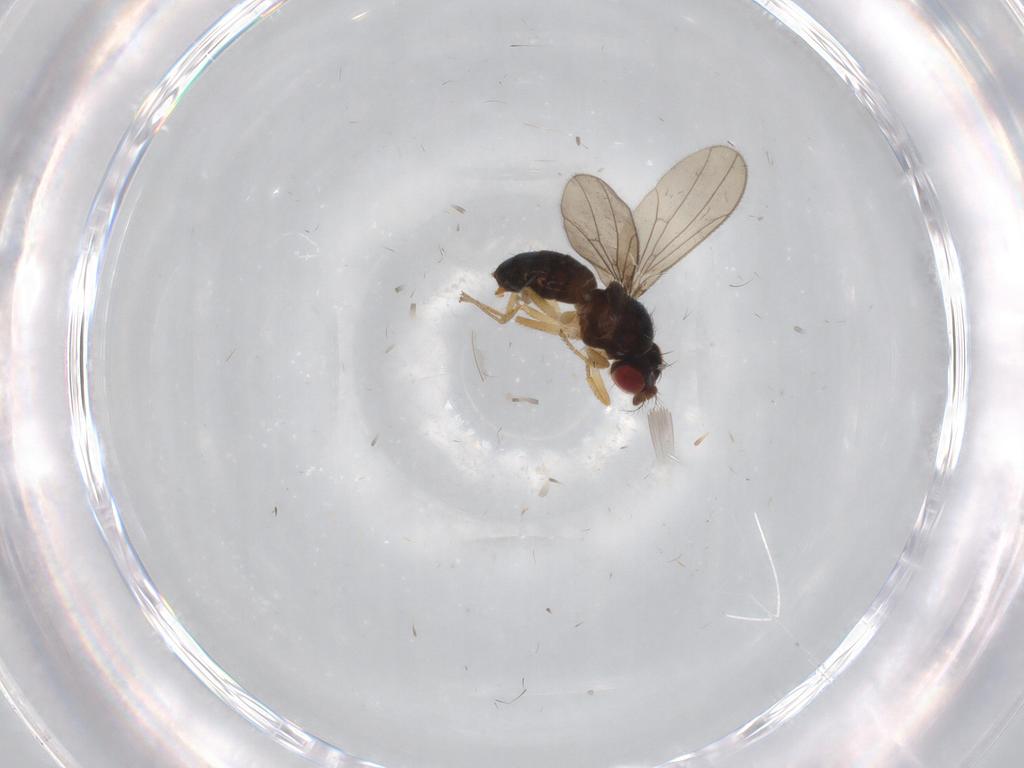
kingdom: Animalia
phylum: Arthropoda
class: Insecta
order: Diptera
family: Drosophilidae
